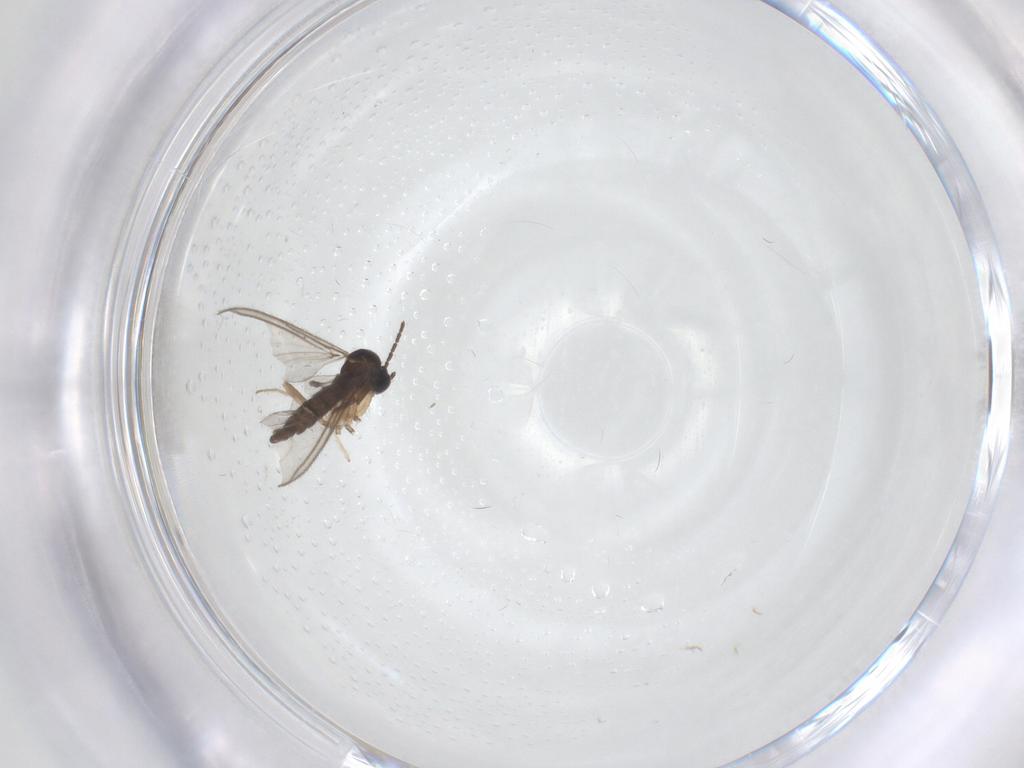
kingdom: Animalia
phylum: Arthropoda
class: Insecta
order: Diptera
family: Sciaridae
